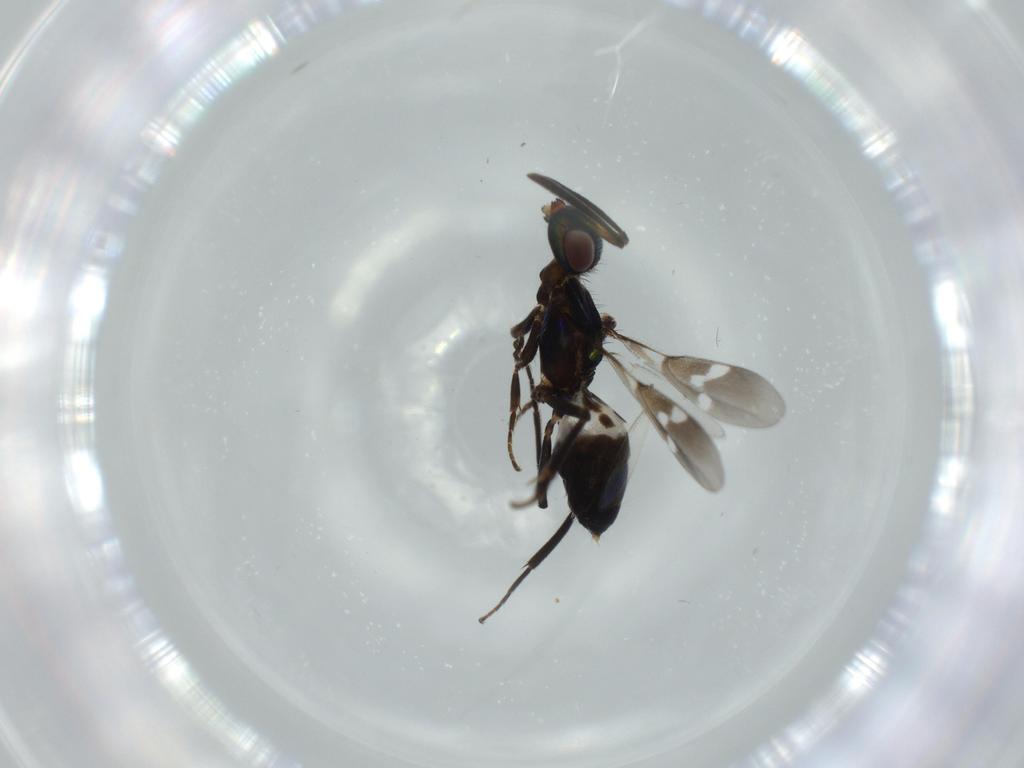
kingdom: Animalia
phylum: Arthropoda
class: Insecta
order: Hymenoptera
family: Eupelmidae
